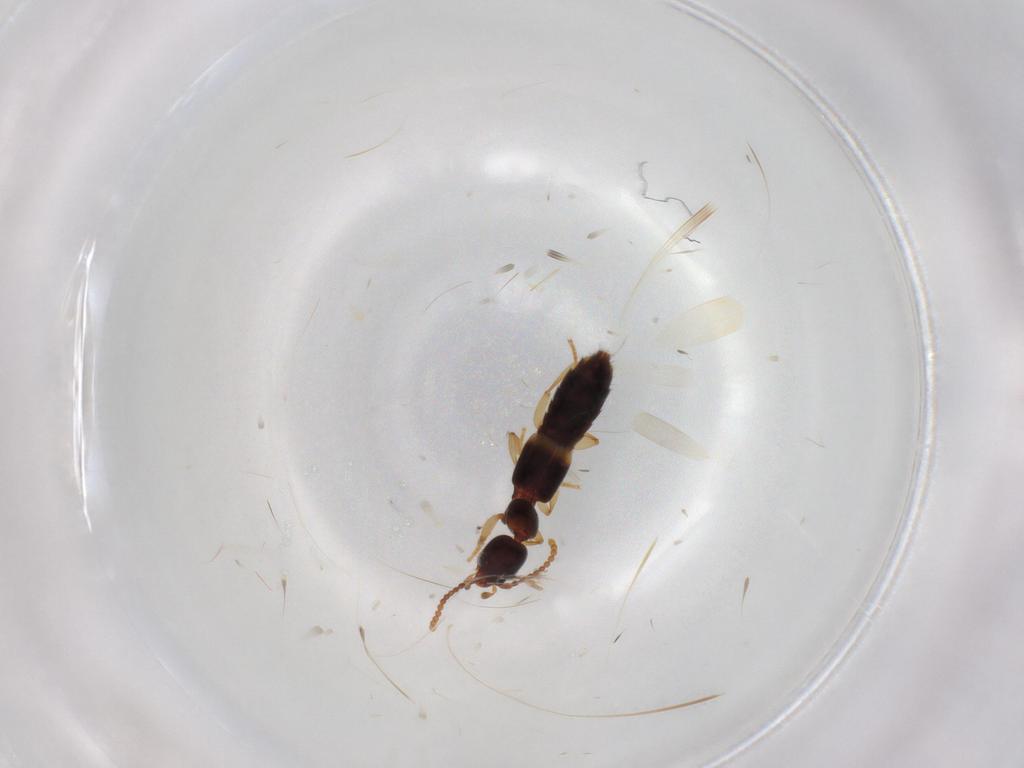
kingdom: Animalia
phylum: Arthropoda
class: Insecta
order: Coleoptera
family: Staphylinidae
